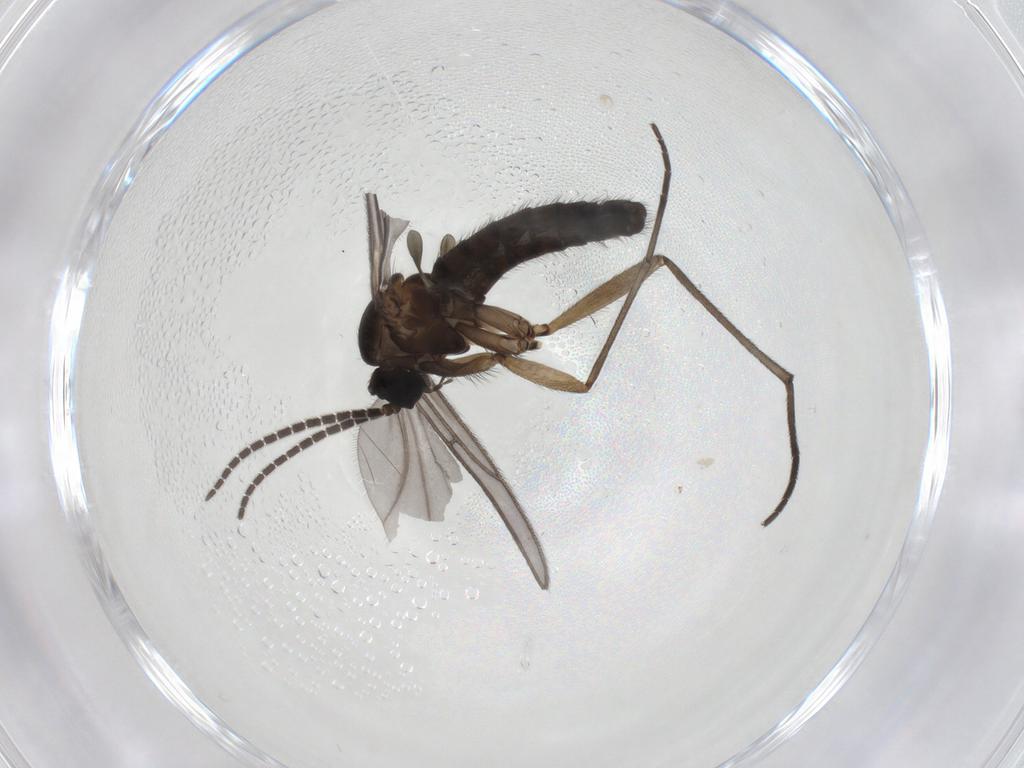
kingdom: Animalia
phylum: Arthropoda
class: Insecta
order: Diptera
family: Sciaridae
